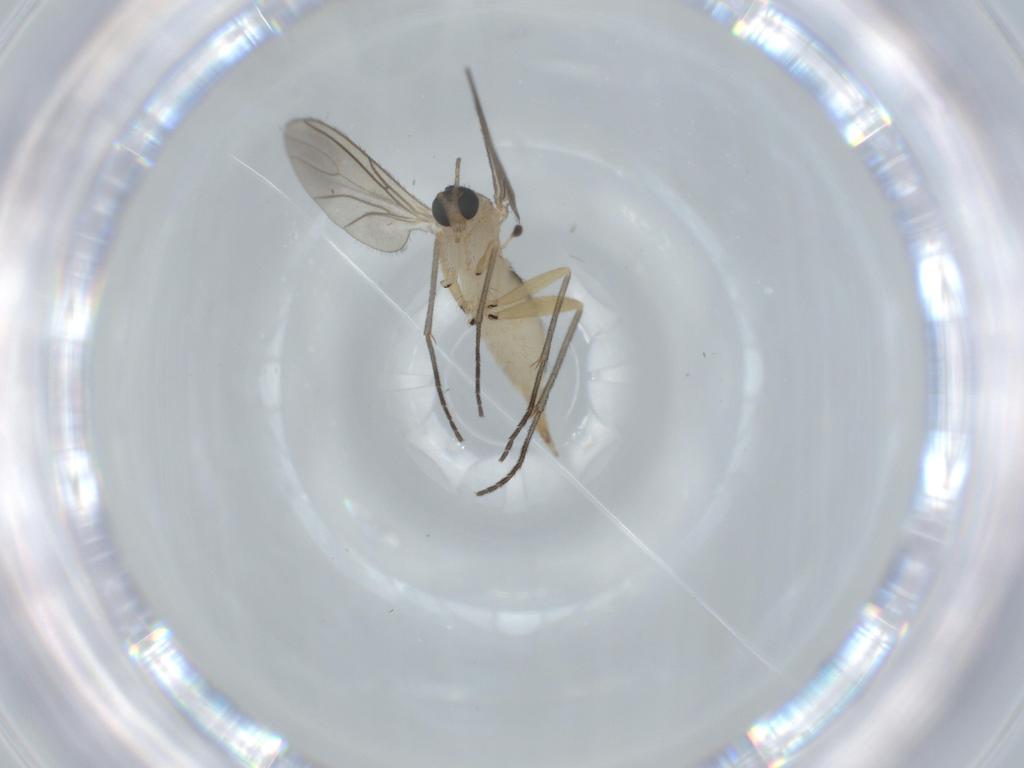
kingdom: Animalia
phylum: Arthropoda
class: Insecta
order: Diptera
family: Sciaridae
